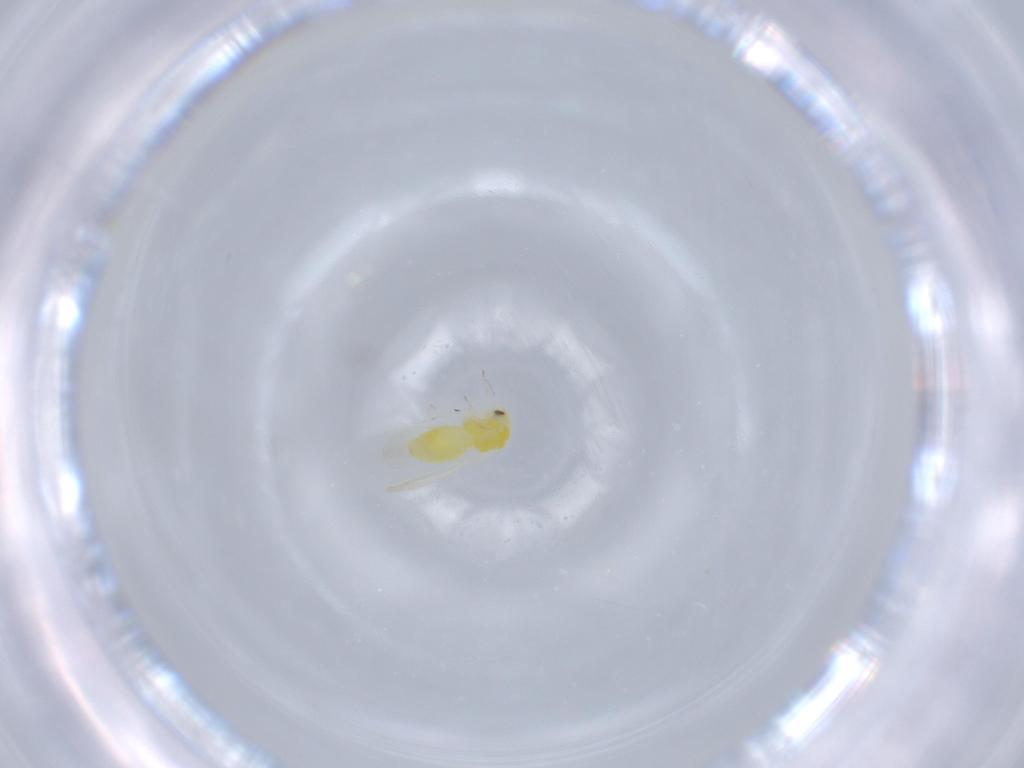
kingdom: Animalia
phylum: Arthropoda
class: Insecta
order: Hemiptera
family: Aleyrodidae
